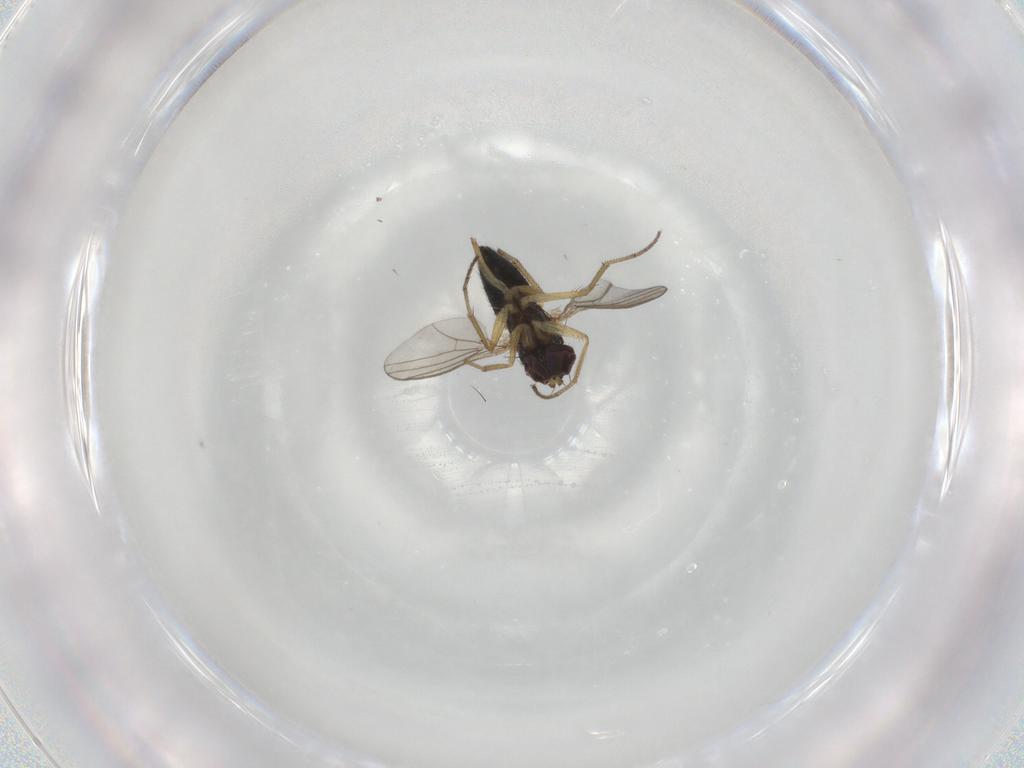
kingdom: Animalia
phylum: Arthropoda
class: Insecta
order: Diptera
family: Dolichopodidae
